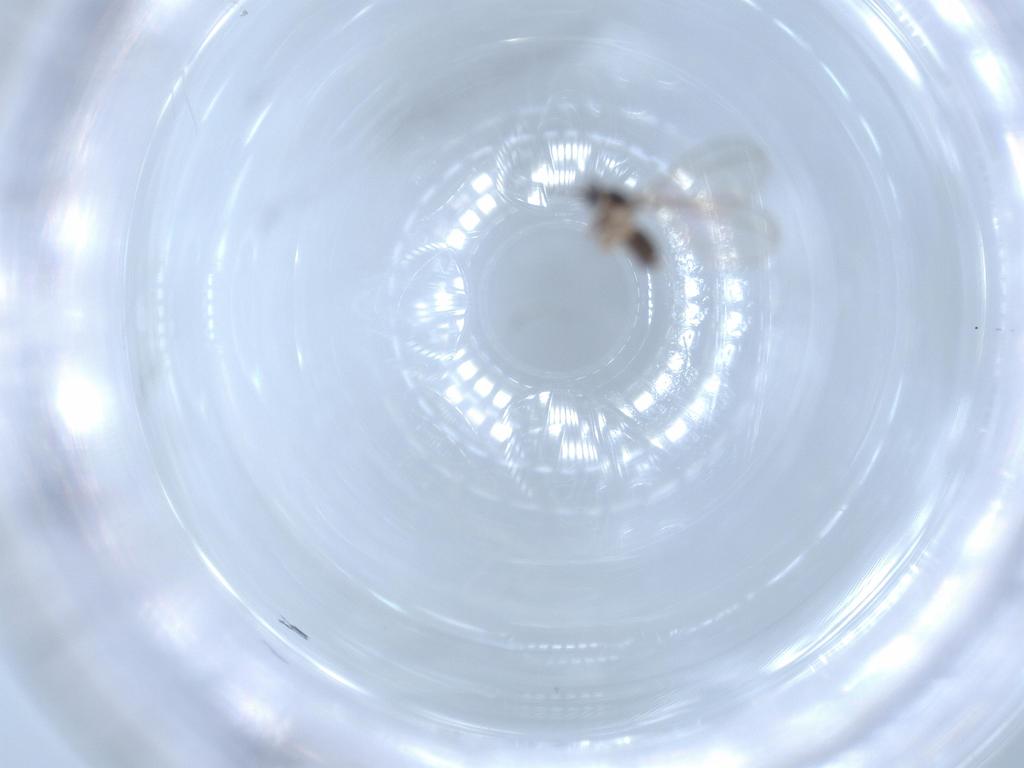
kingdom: Animalia
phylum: Arthropoda
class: Insecta
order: Diptera
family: Cecidomyiidae
